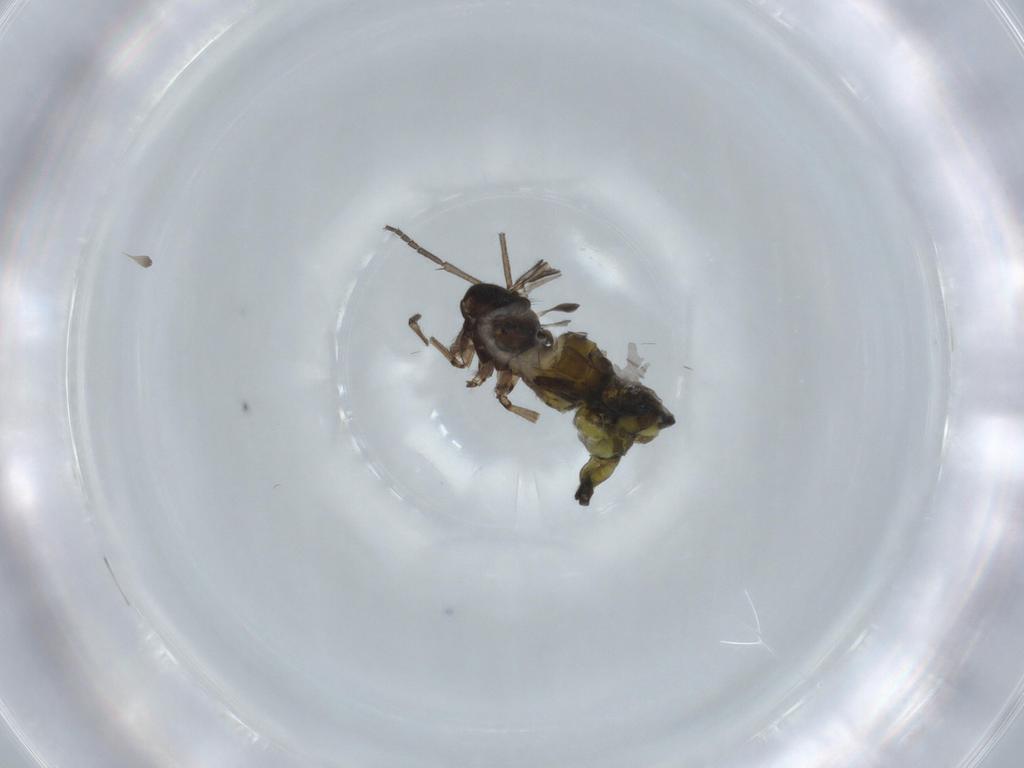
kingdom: Animalia
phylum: Arthropoda
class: Insecta
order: Diptera
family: Sciaridae
